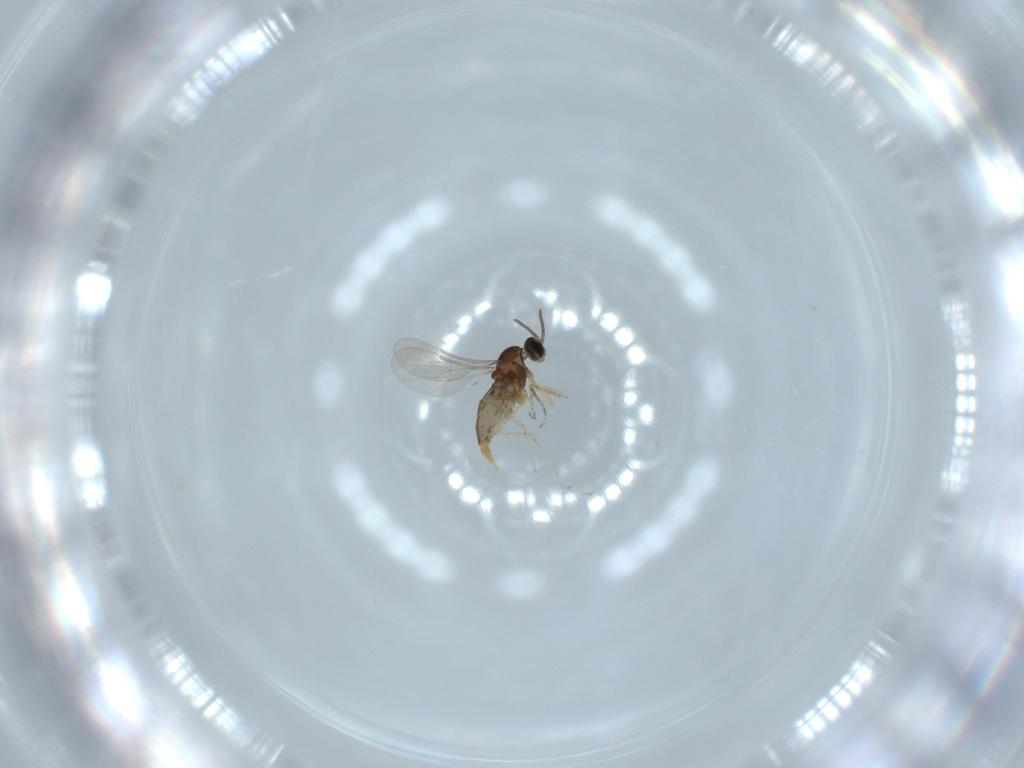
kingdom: Animalia
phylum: Arthropoda
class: Insecta
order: Diptera
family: Cecidomyiidae
